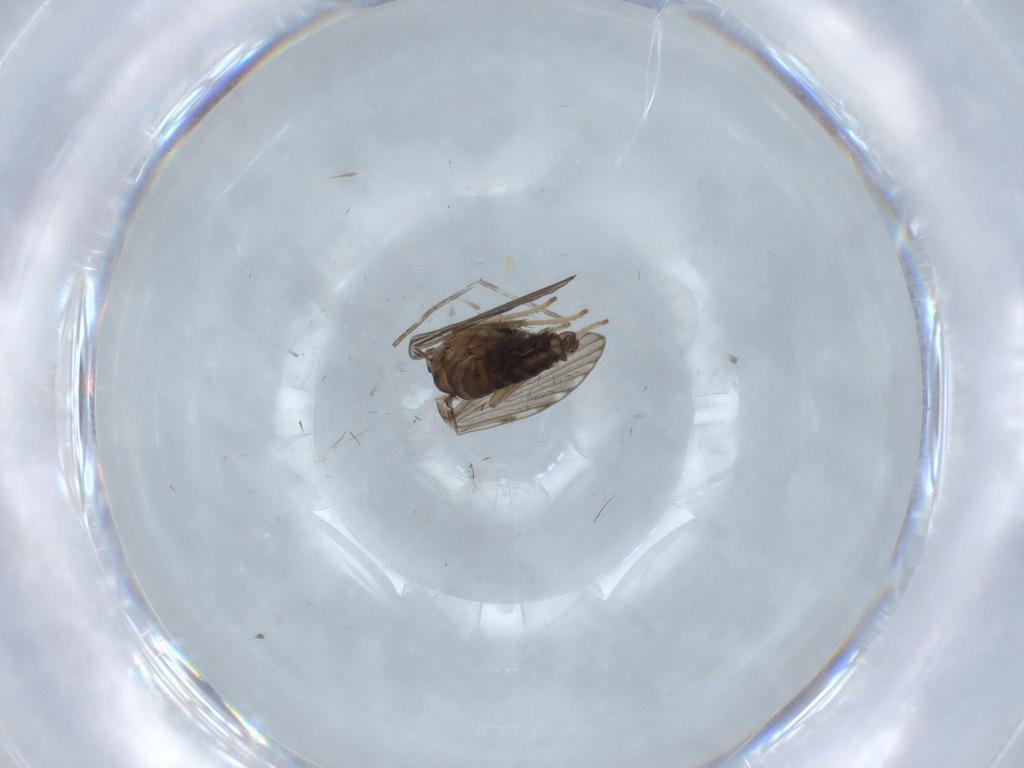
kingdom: Animalia
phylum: Arthropoda
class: Insecta
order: Diptera
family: Psychodidae
